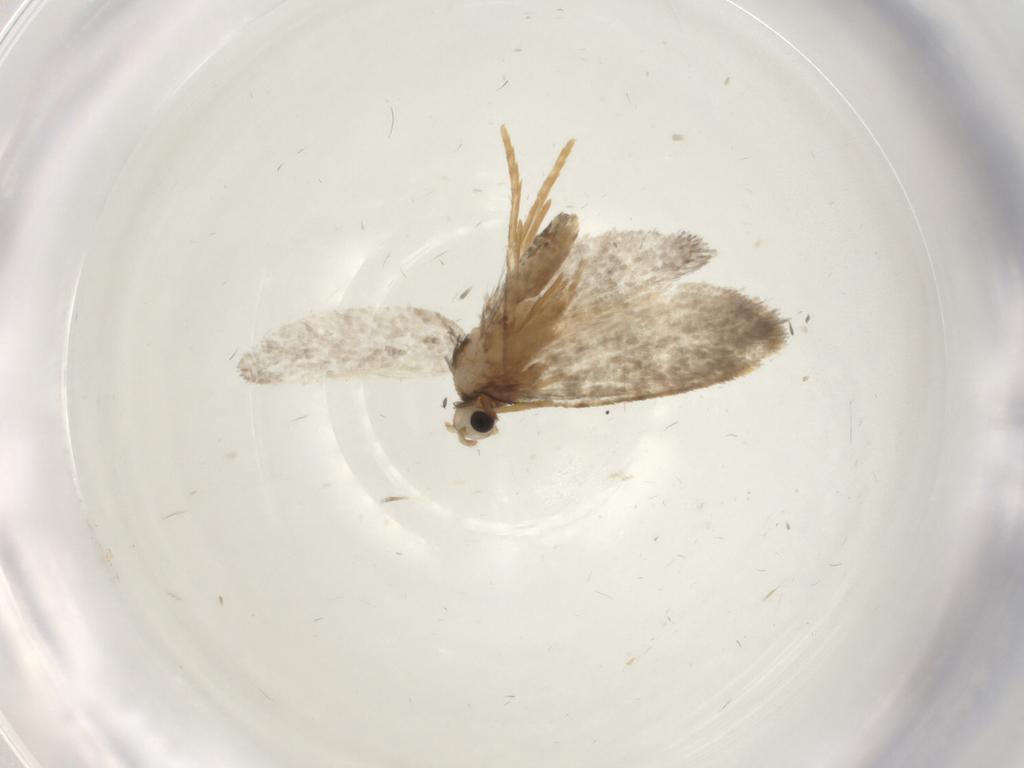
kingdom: Animalia
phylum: Arthropoda
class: Insecta
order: Lepidoptera
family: Psychidae
